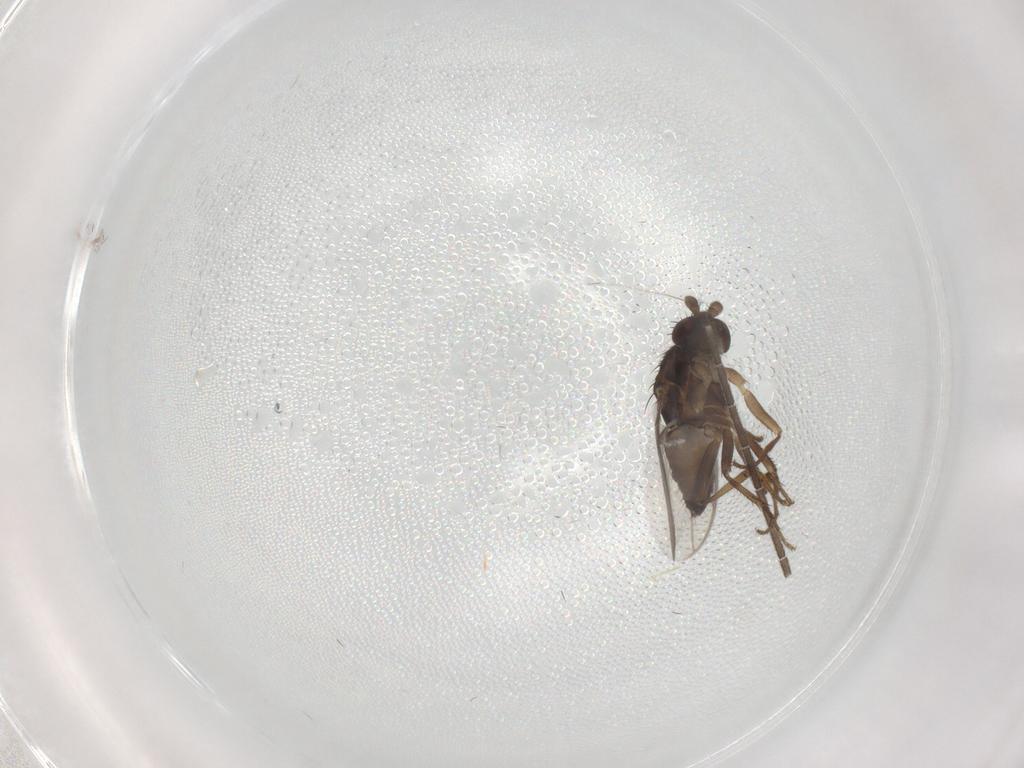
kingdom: Animalia
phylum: Arthropoda
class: Insecta
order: Diptera
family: Sphaeroceridae
